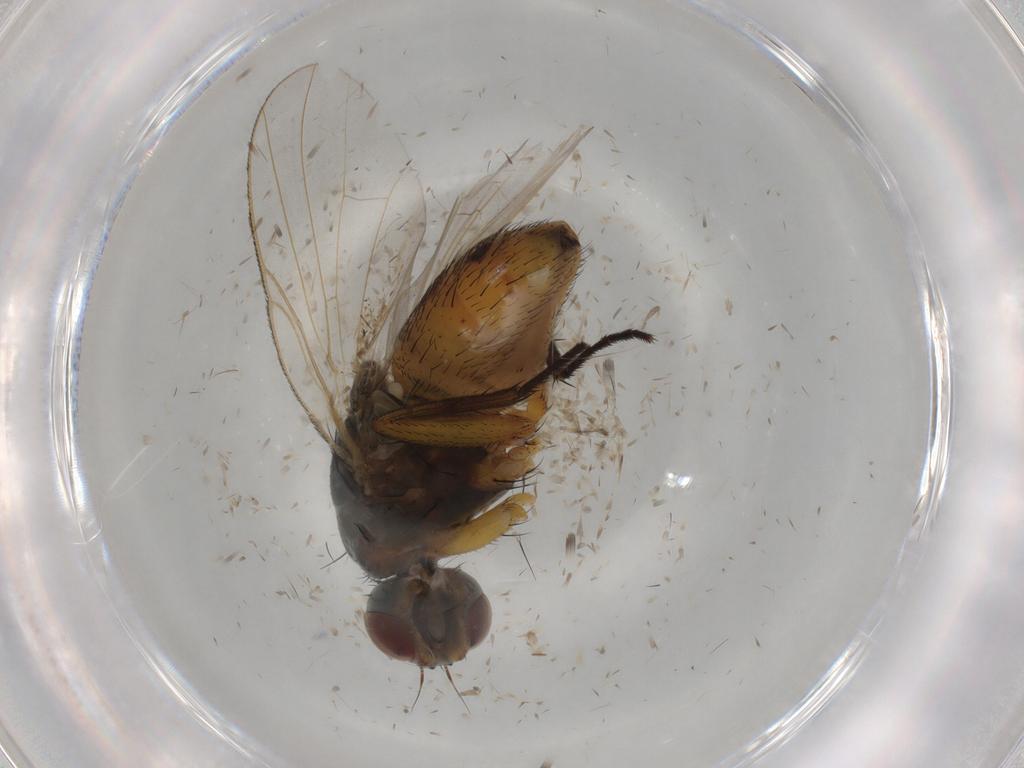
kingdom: Animalia
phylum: Arthropoda
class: Insecta
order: Diptera
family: Muscidae
